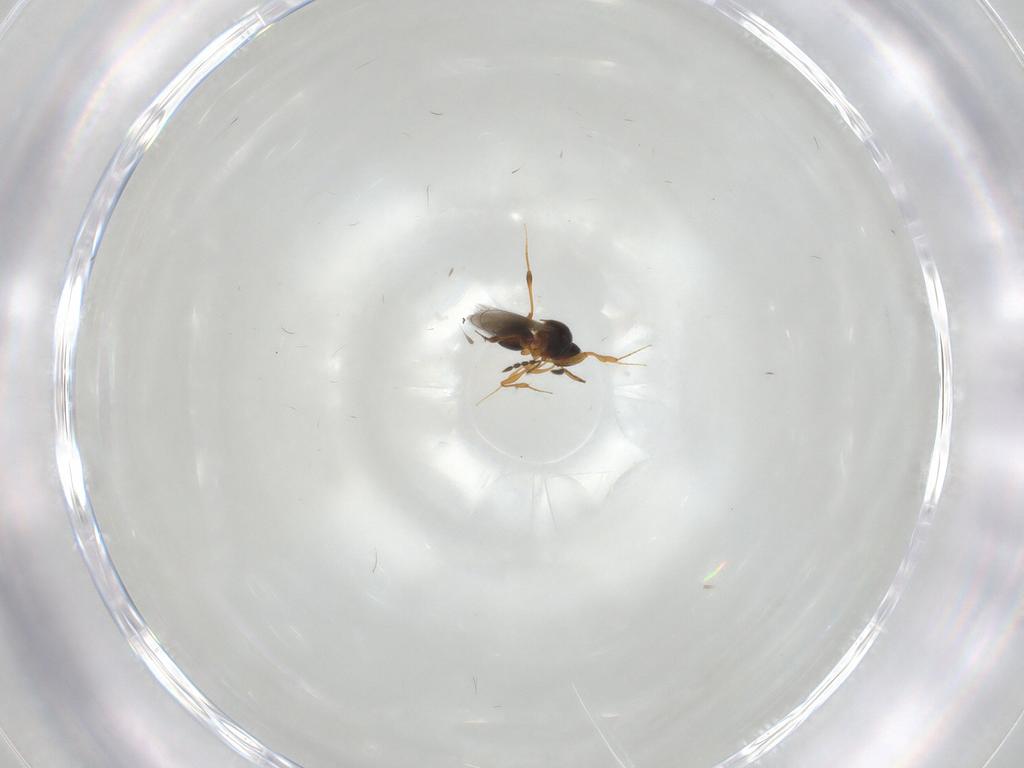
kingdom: Animalia
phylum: Arthropoda
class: Insecta
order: Hymenoptera
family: Platygastridae
